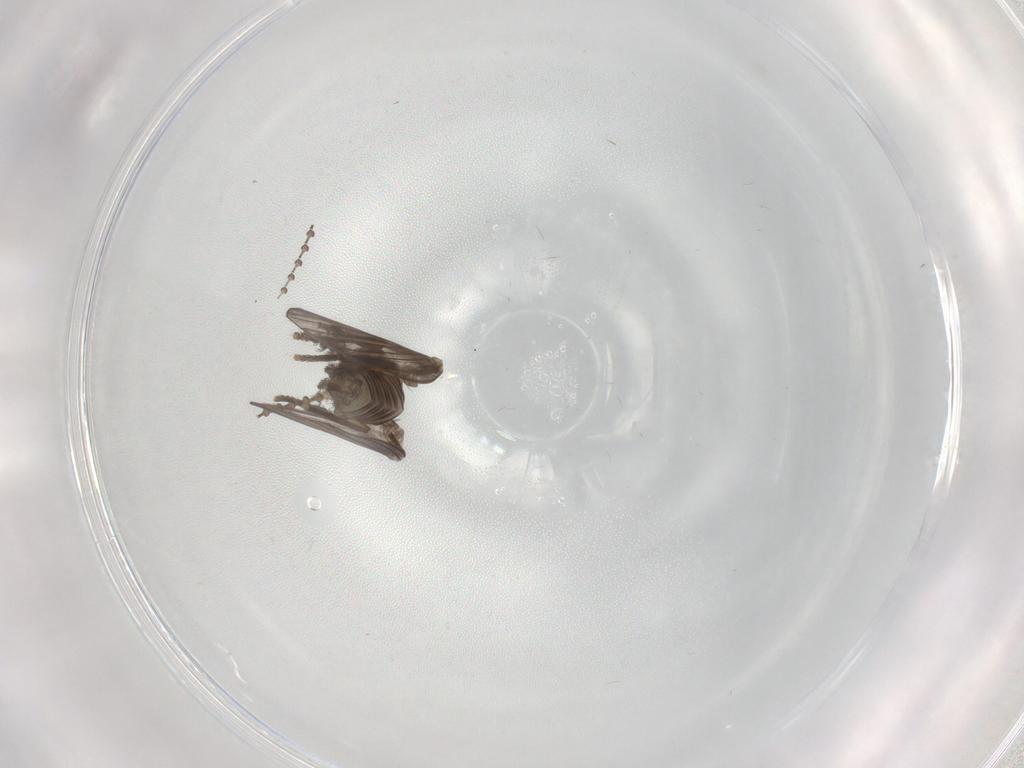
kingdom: Animalia
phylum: Arthropoda
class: Insecta
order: Diptera
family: Psychodidae
